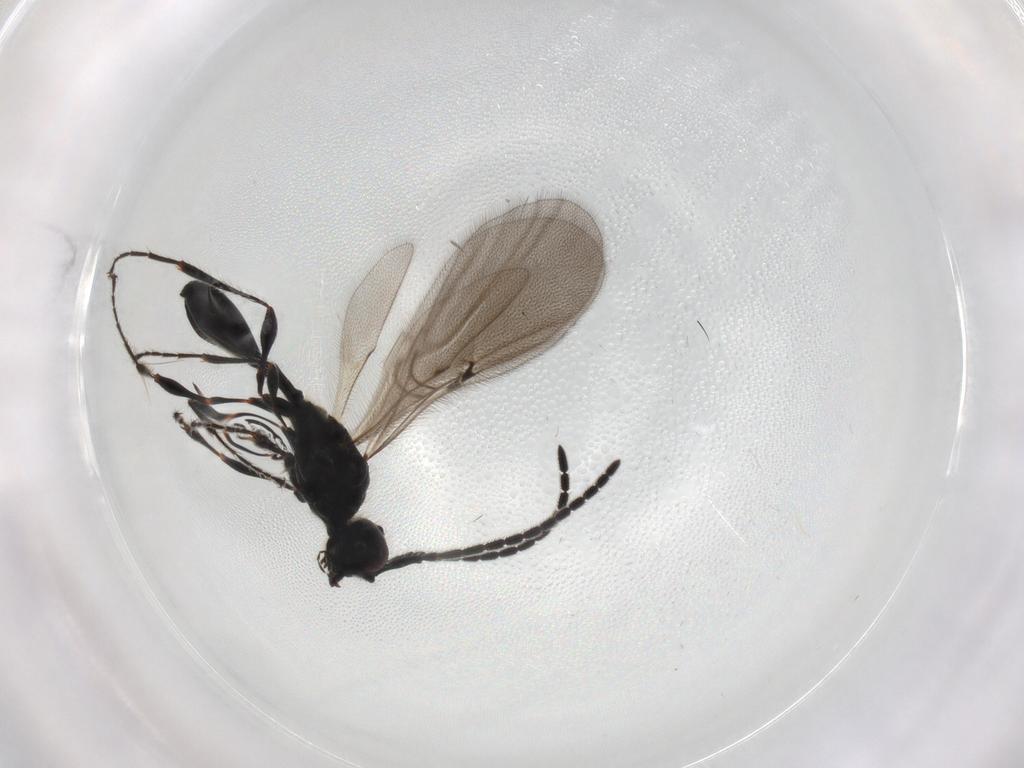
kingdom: Animalia
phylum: Arthropoda
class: Insecta
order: Hymenoptera
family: Diapriidae
